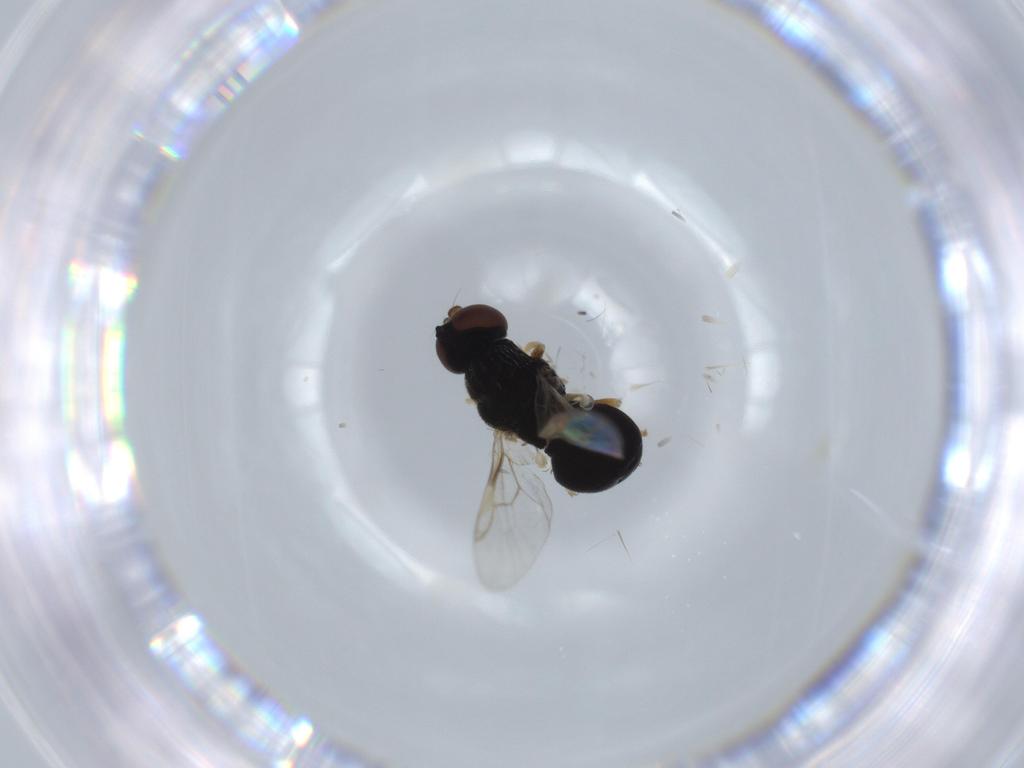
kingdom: Animalia
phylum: Arthropoda
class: Insecta
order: Diptera
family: Stratiomyidae
